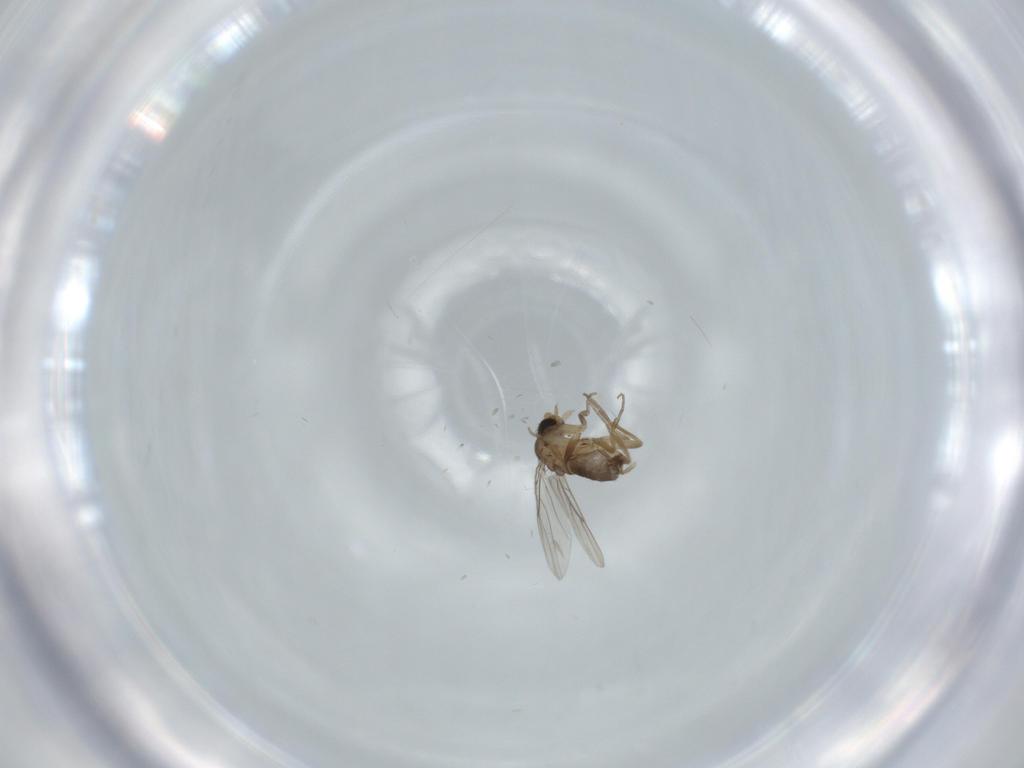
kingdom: Animalia
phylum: Arthropoda
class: Insecta
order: Diptera
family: Phoridae
